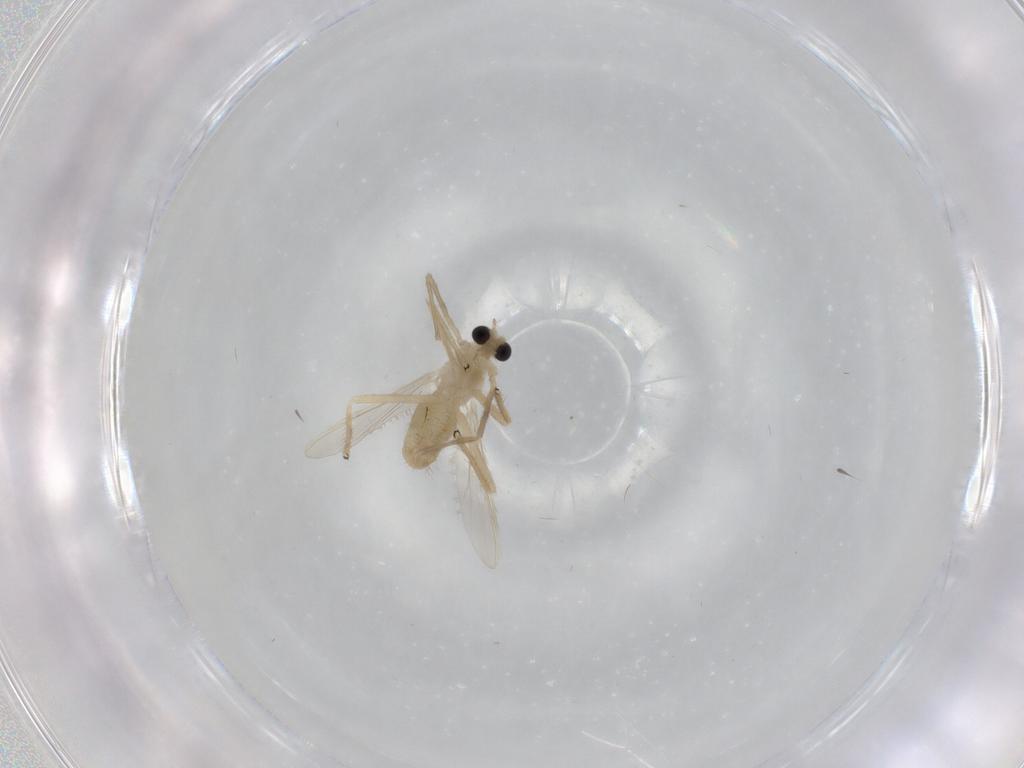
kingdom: Animalia
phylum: Arthropoda
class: Insecta
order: Diptera
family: Chironomidae
